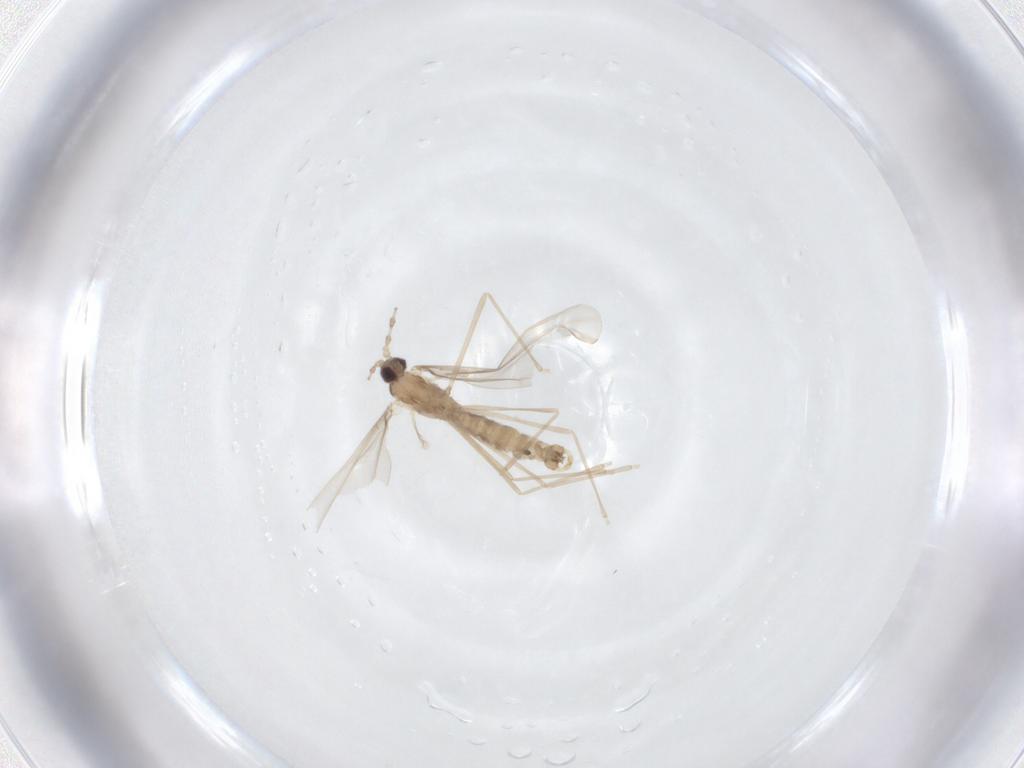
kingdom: Animalia
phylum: Arthropoda
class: Insecta
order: Diptera
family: Cecidomyiidae
